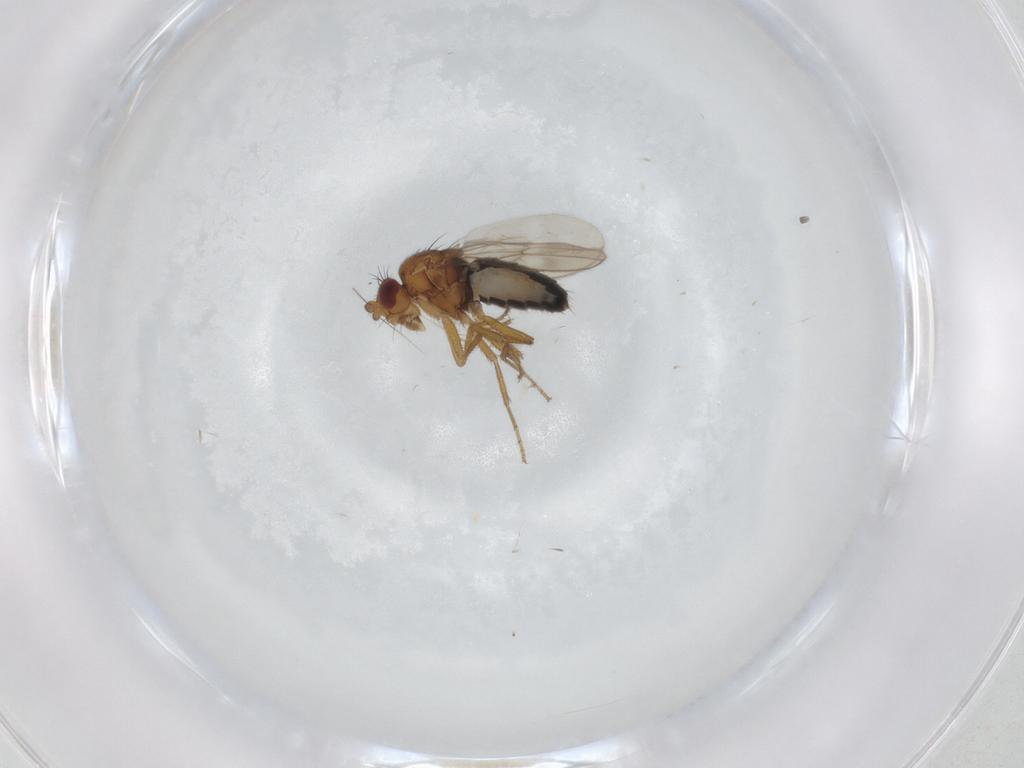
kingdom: Animalia
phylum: Arthropoda
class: Insecta
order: Diptera
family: Sphaeroceridae
